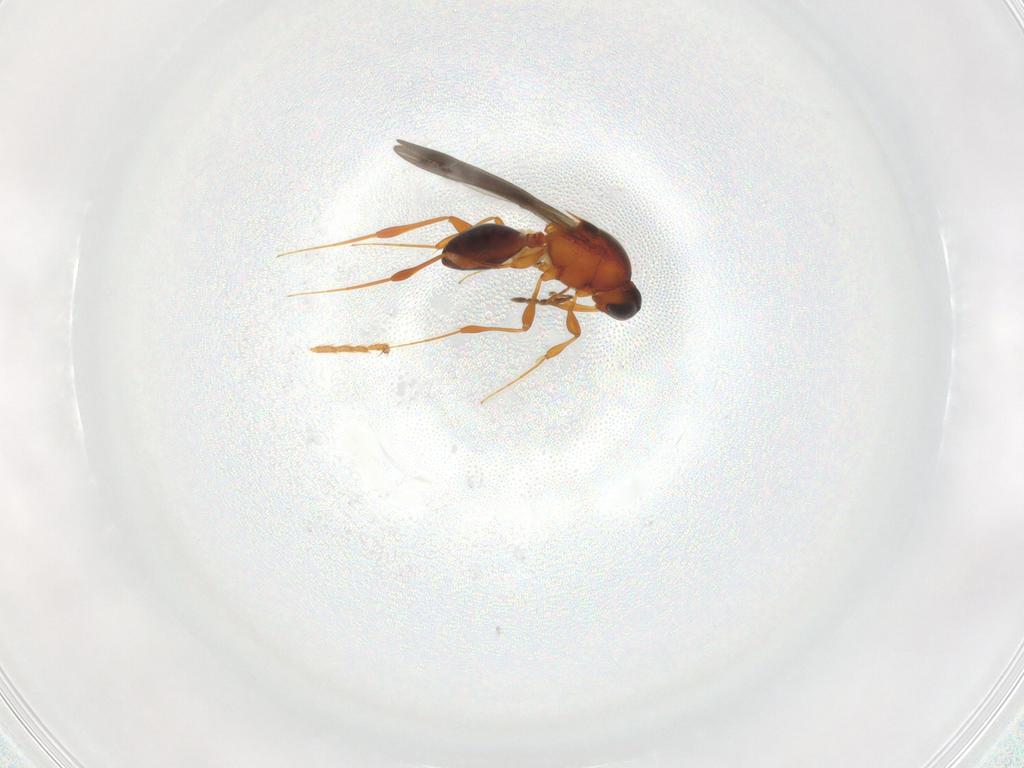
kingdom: Animalia
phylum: Arthropoda
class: Insecta
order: Hymenoptera
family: Formicidae
